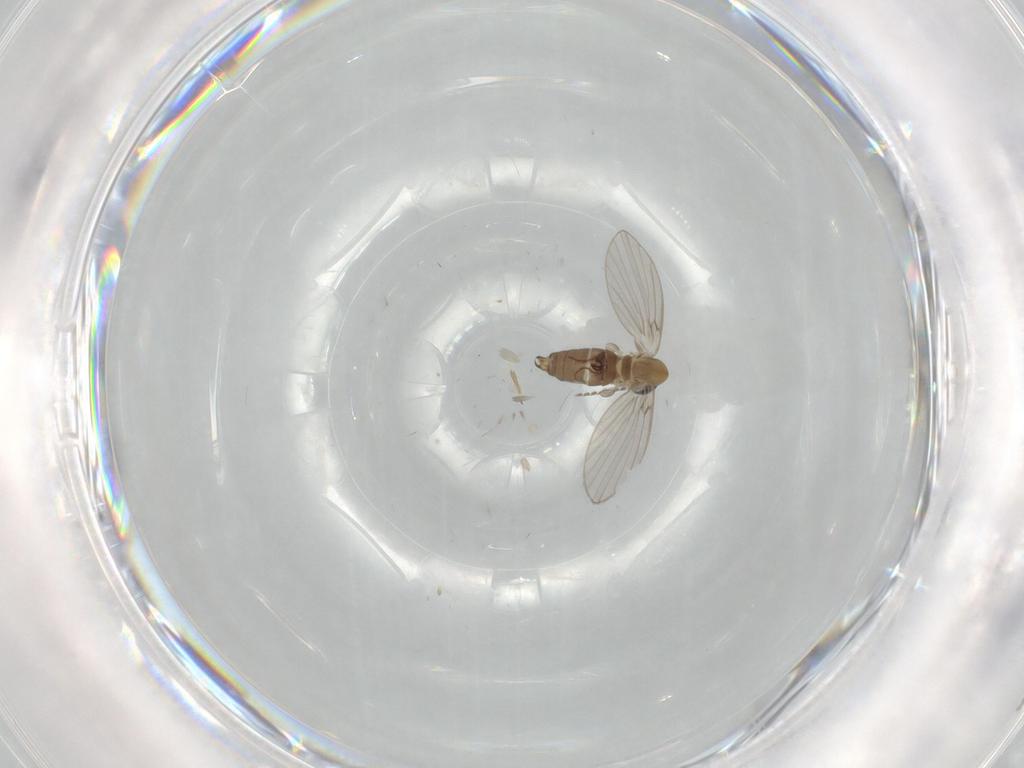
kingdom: Animalia
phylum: Arthropoda
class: Insecta
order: Diptera
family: Psychodidae
